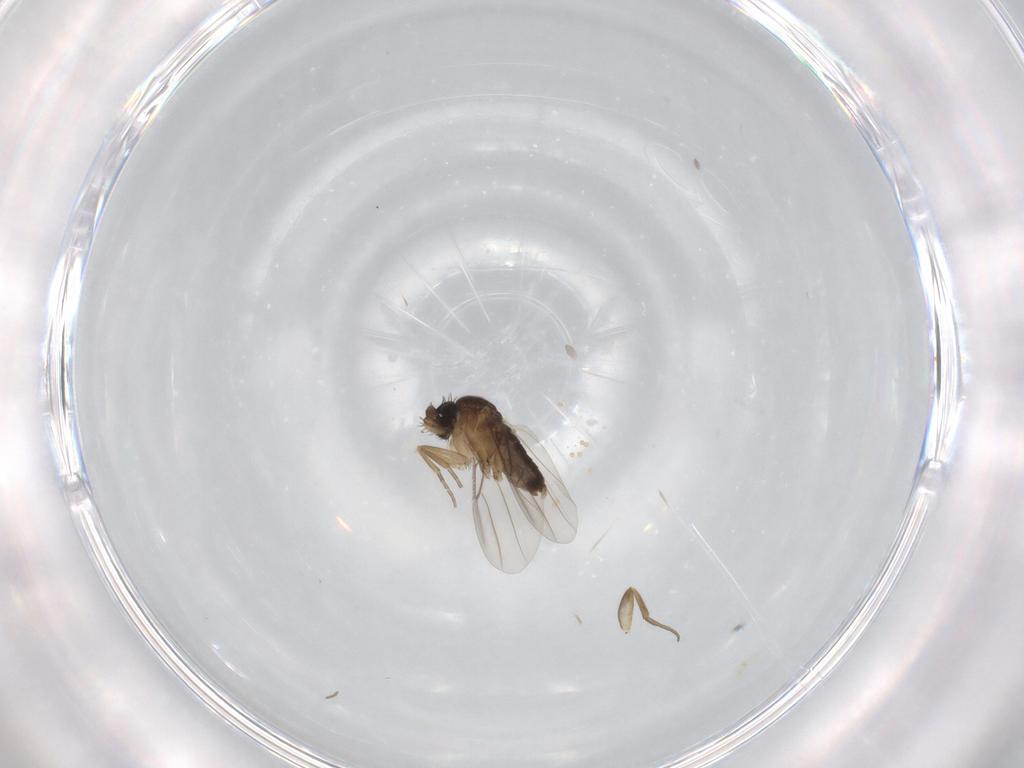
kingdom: Animalia
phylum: Arthropoda
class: Insecta
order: Diptera
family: Phoridae
